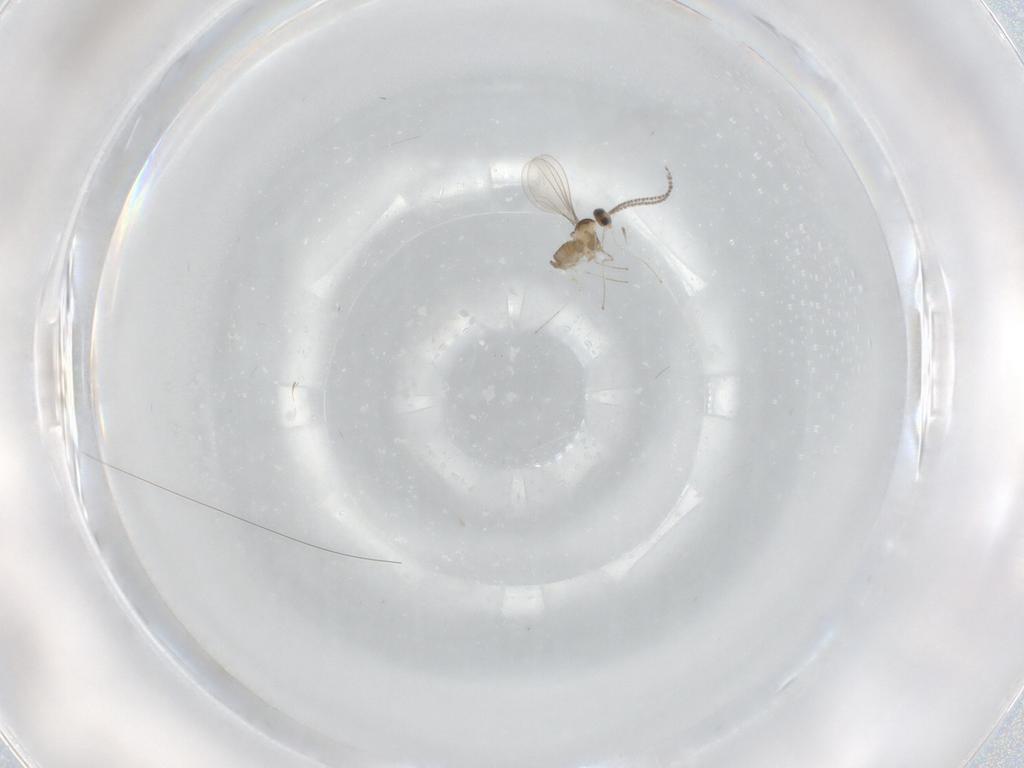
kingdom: Animalia
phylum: Arthropoda
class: Insecta
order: Diptera
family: Cecidomyiidae
